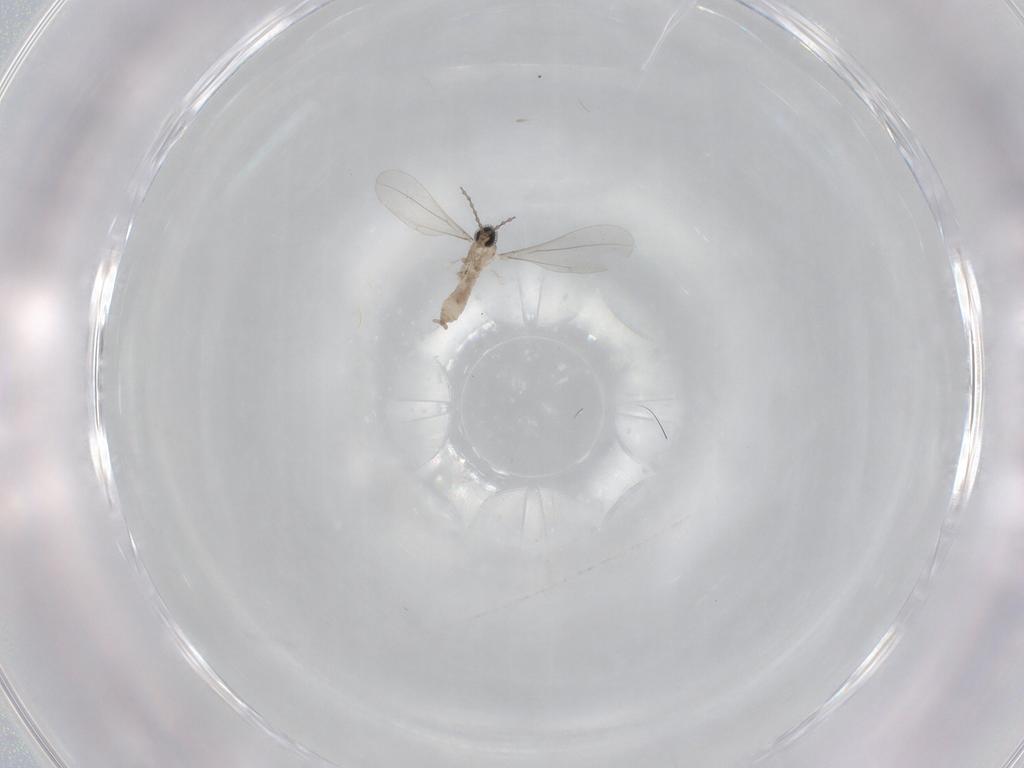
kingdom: Animalia
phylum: Arthropoda
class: Insecta
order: Diptera
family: Cecidomyiidae
